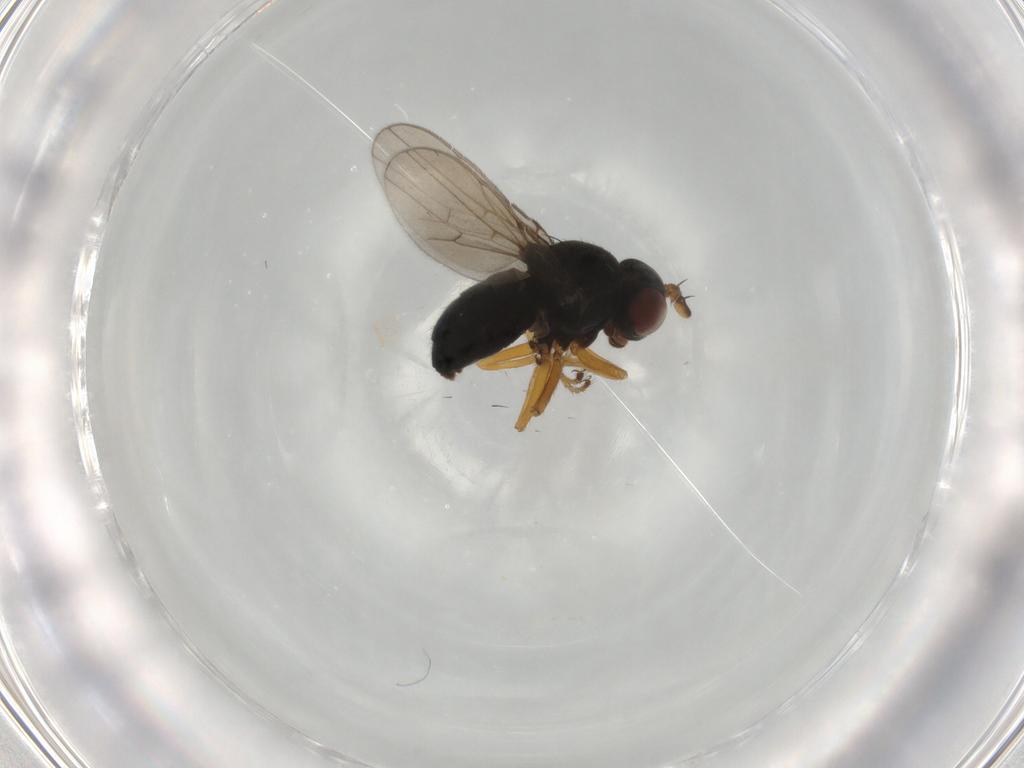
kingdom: Animalia
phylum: Arthropoda
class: Insecta
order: Diptera
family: Ephydridae
